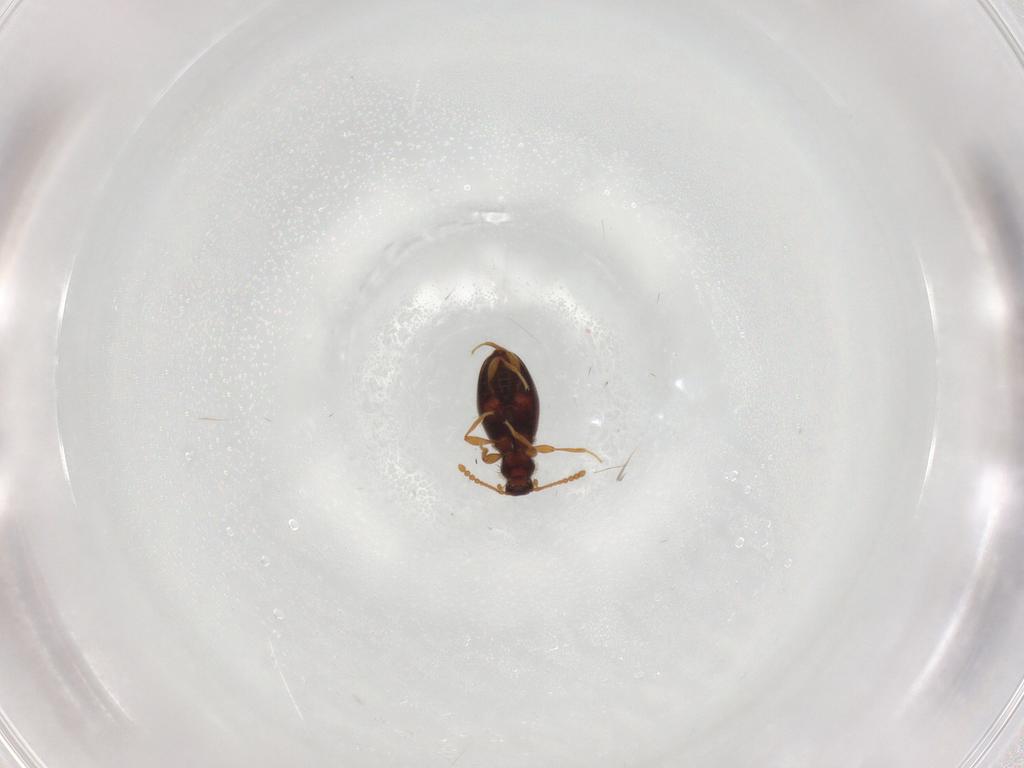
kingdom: Animalia
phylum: Arthropoda
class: Insecta
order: Coleoptera
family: Staphylinidae
